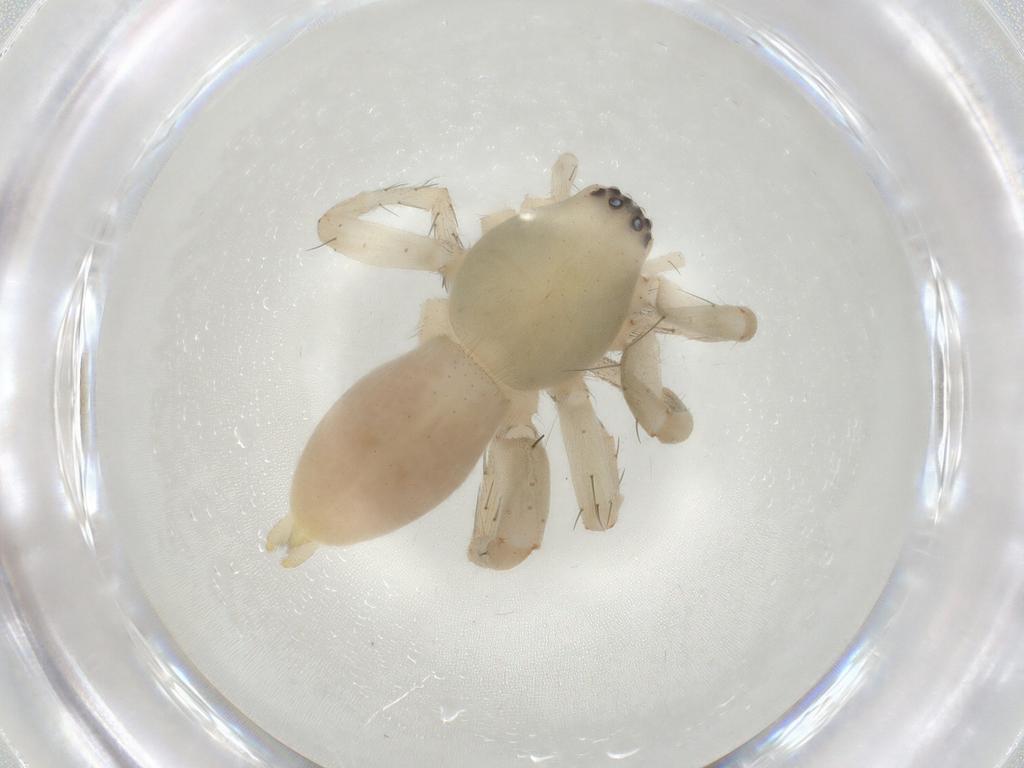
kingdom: Animalia
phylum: Arthropoda
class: Arachnida
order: Araneae
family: Clubionidae
